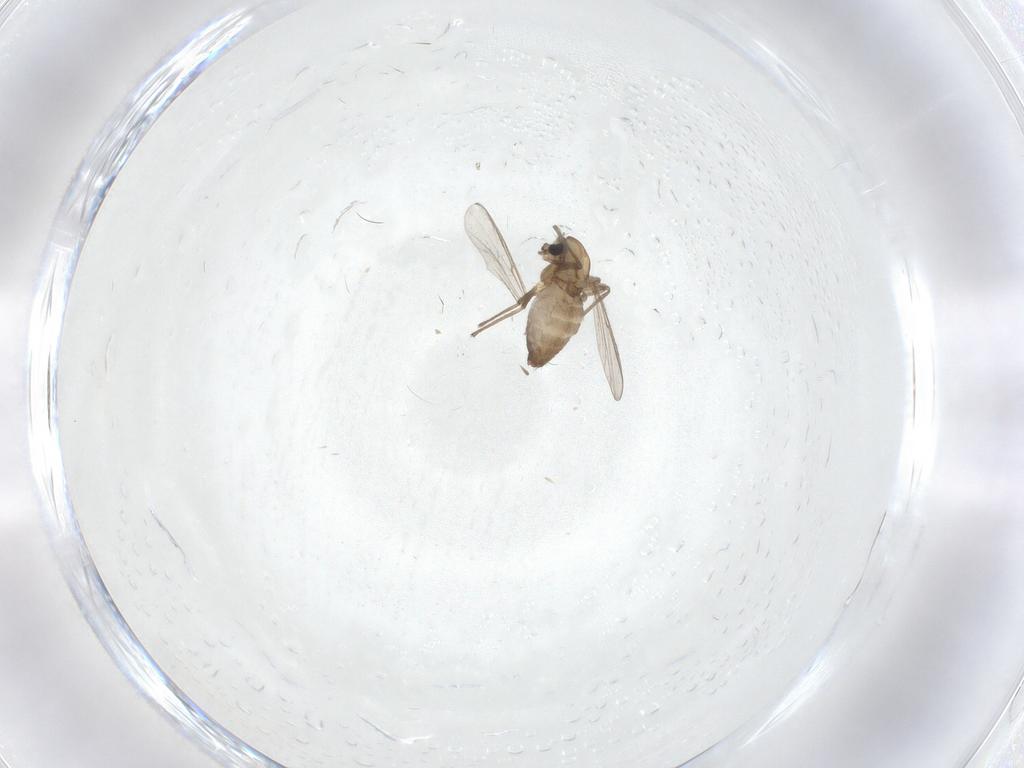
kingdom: Animalia
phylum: Arthropoda
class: Insecta
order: Diptera
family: Chironomidae
